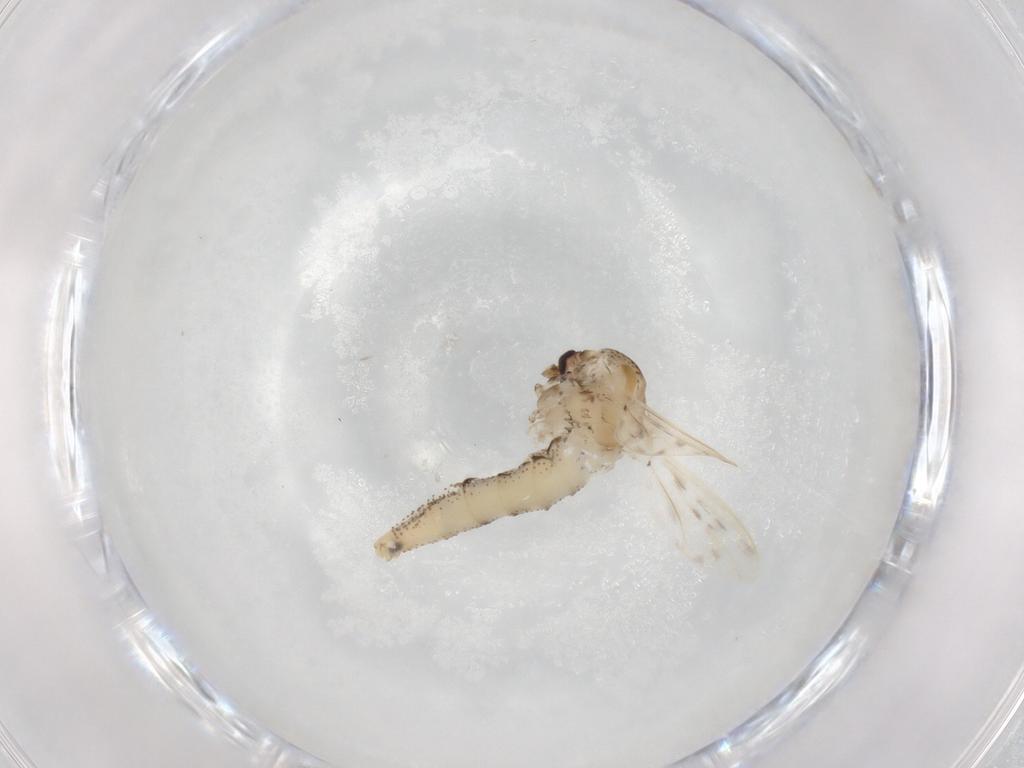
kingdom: Animalia
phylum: Arthropoda
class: Insecta
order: Diptera
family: Chaoboridae
